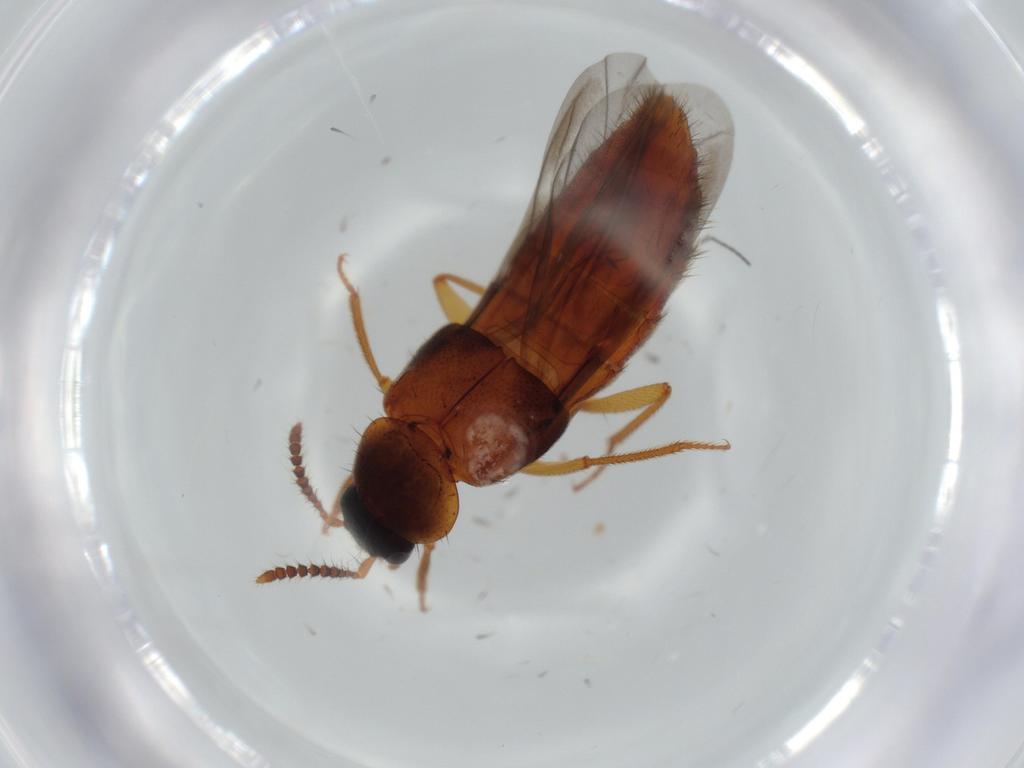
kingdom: Animalia
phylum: Arthropoda
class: Insecta
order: Coleoptera
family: Staphylinidae
